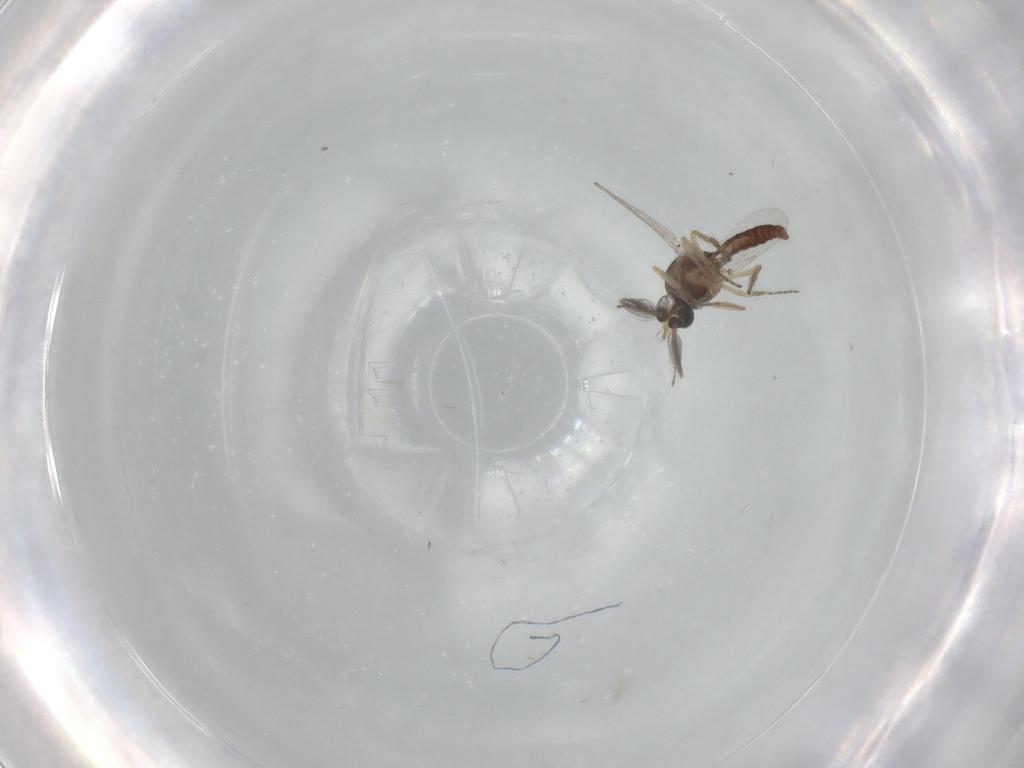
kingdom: Animalia
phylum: Arthropoda
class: Insecta
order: Diptera
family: Ceratopogonidae
